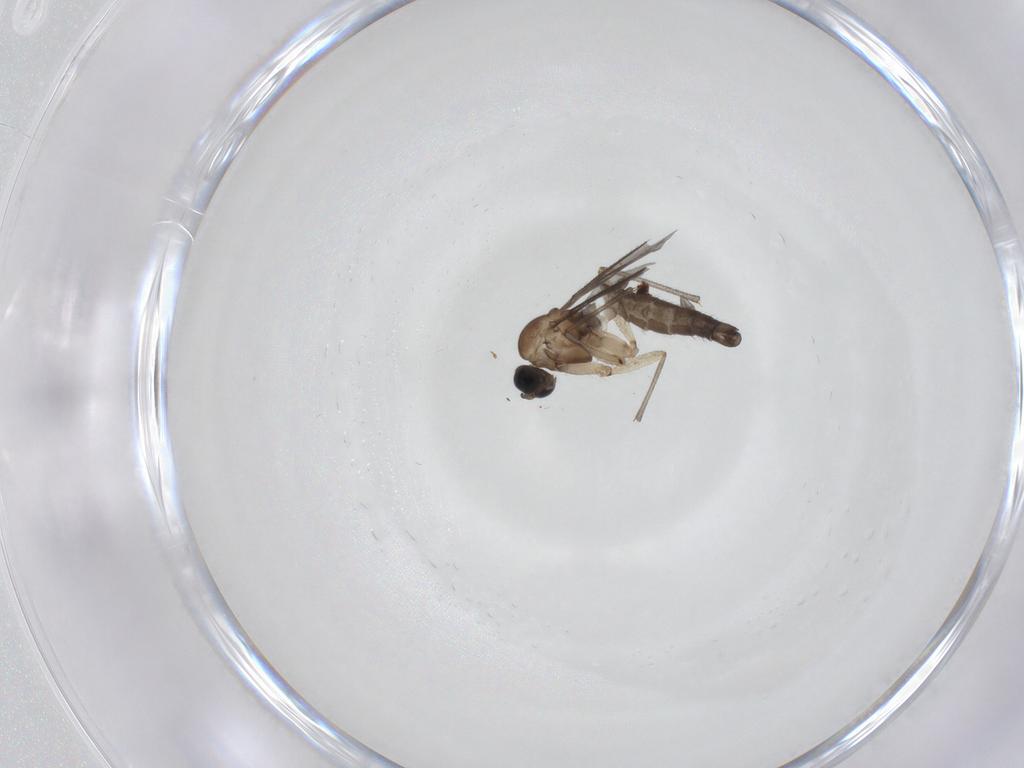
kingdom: Animalia
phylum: Arthropoda
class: Insecta
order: Diptera
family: Sciaridae
